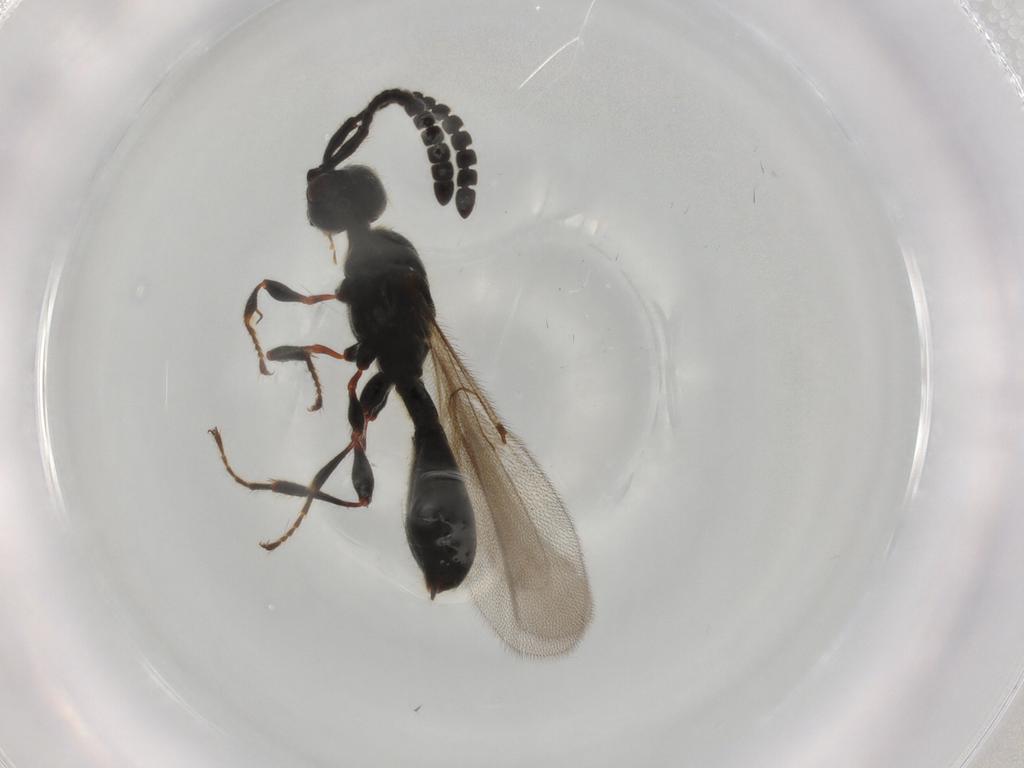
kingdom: Animalia
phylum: Arthropoda
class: Insecta
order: Hymenoptera
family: Diapriidae
